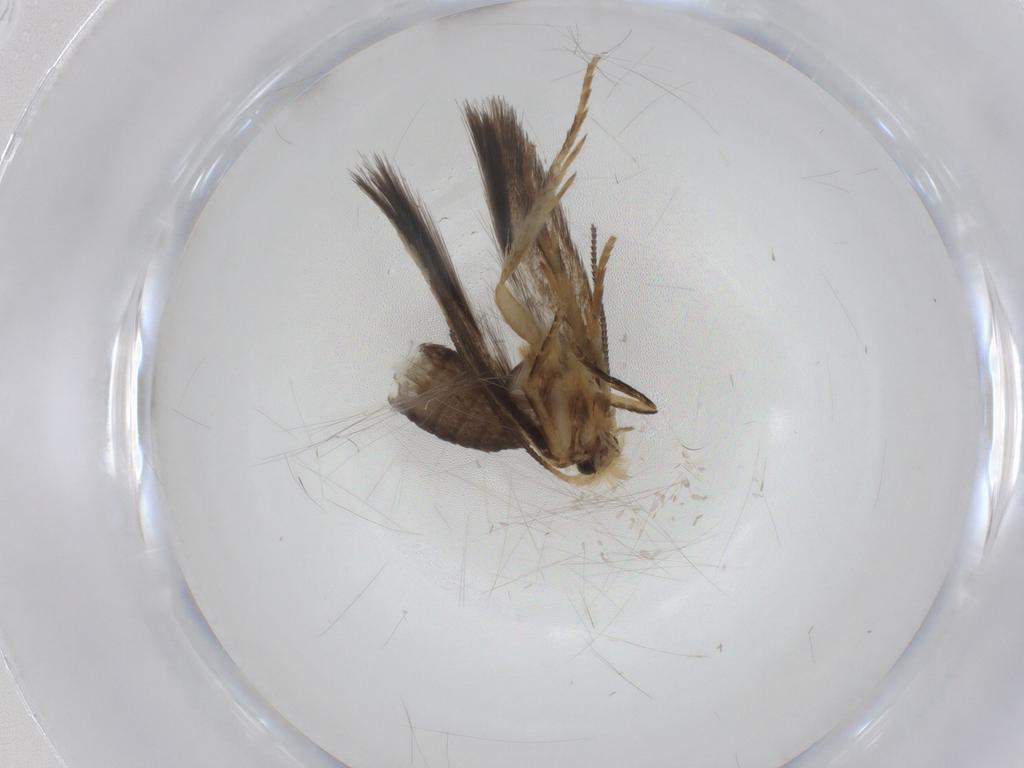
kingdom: Animalia
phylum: Arthropoda
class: Insecta
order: Lepidoptera
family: Nepticulidae
